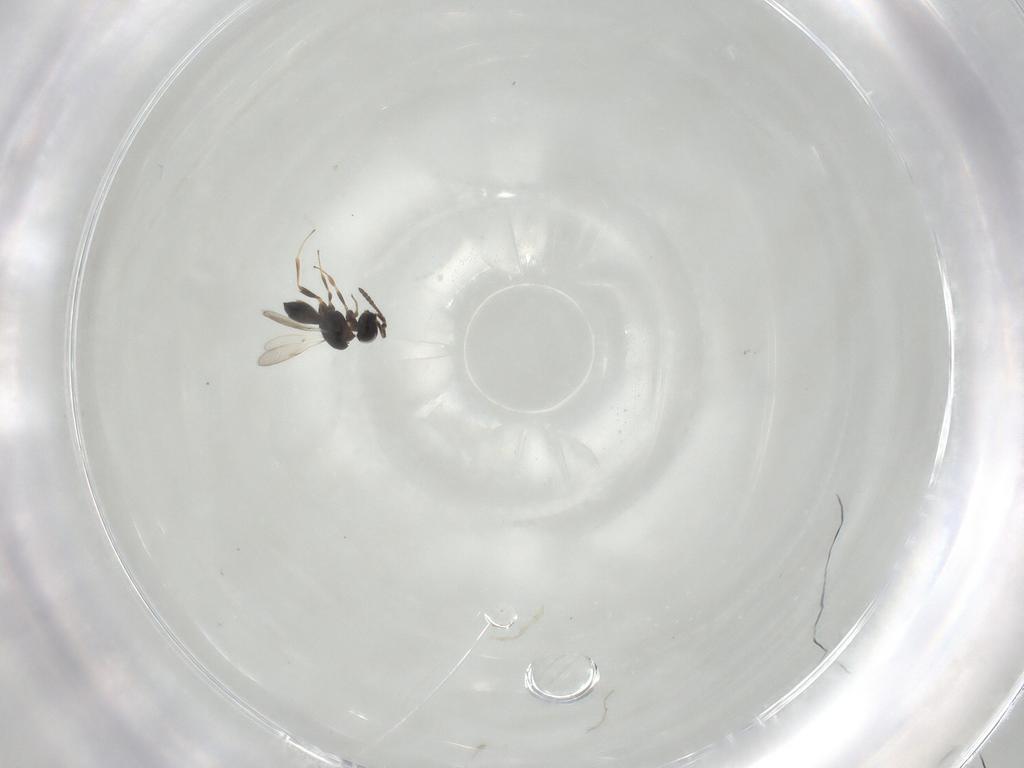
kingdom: Animalia
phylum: Arthropoda
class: Insecta
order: Hymenoptera
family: Scelionidae
